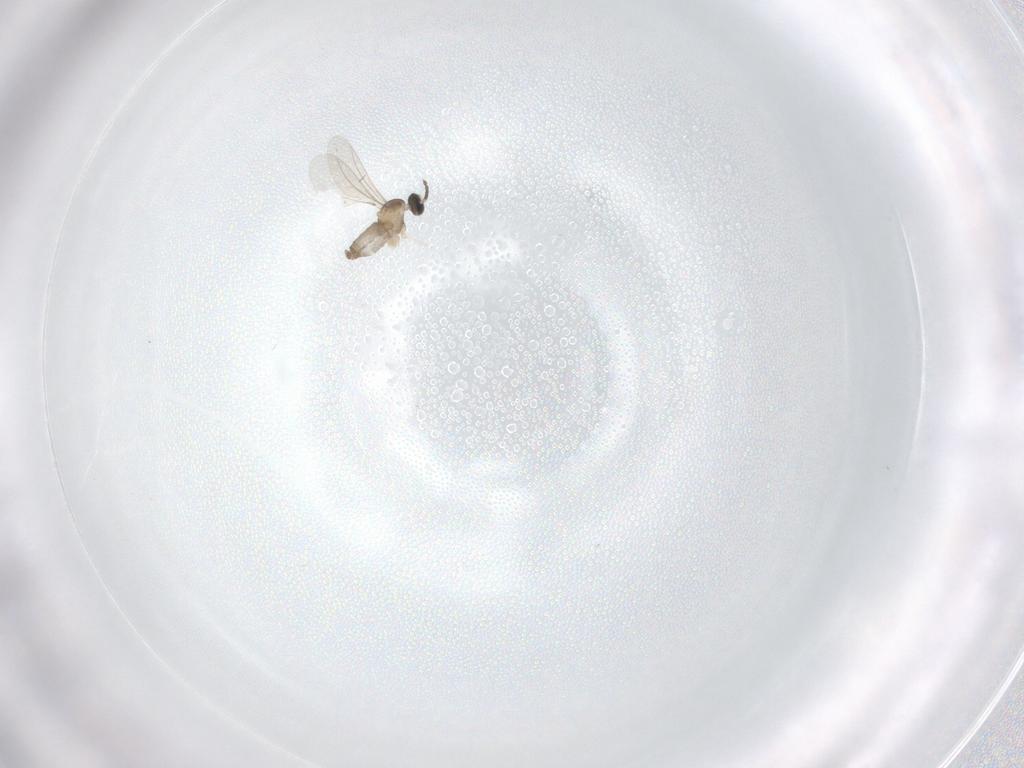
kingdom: Animalia
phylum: Arthropoda
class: Insecta
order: Diptera
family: Cecidomyiidae
